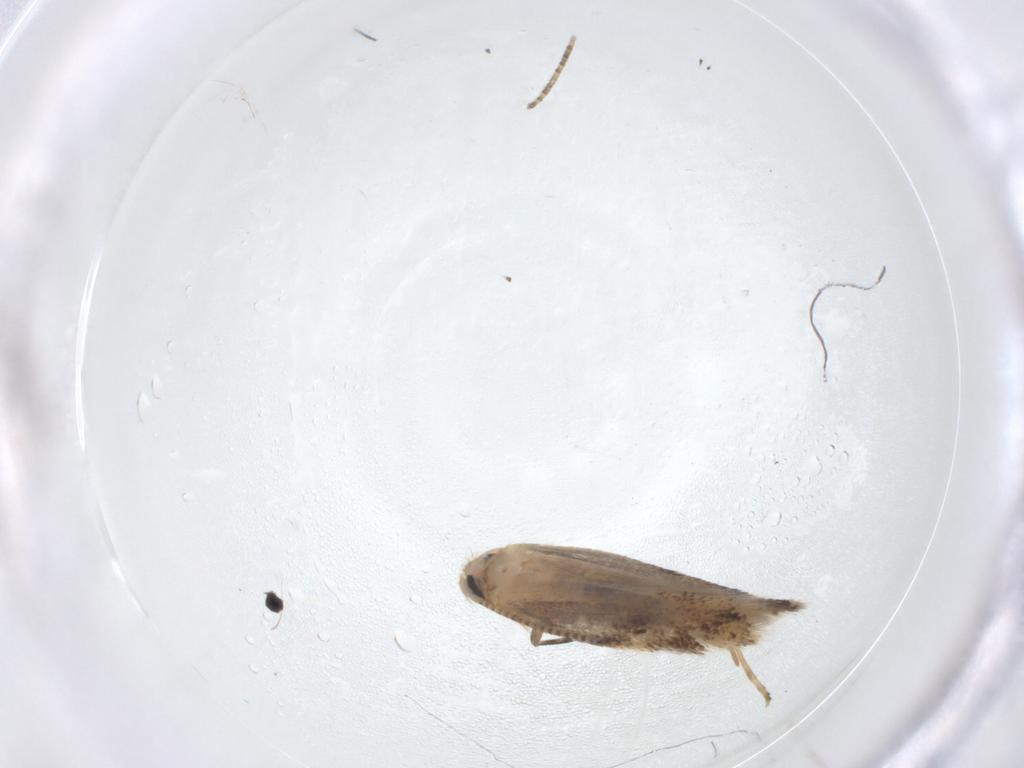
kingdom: Animalia
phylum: Arthropoda
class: Insecta
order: Lepidoptera
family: Bucculatricidae
